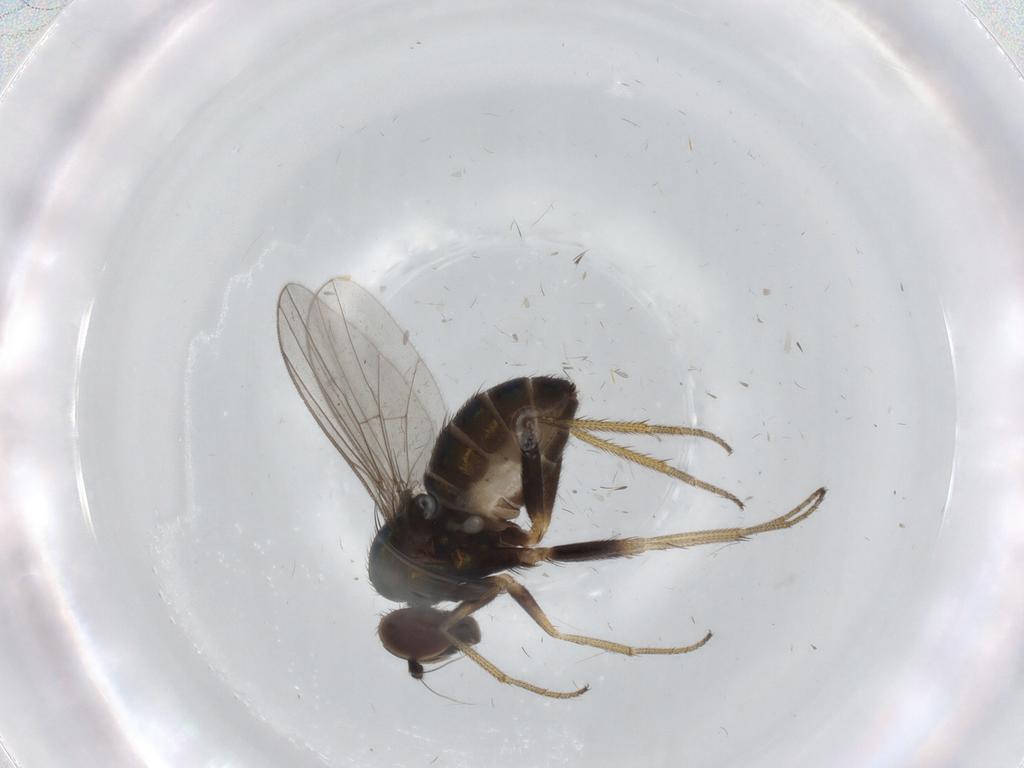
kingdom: Animalia
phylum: Arthropoda
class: Insecta
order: Diptera
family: Dolichopodidae
